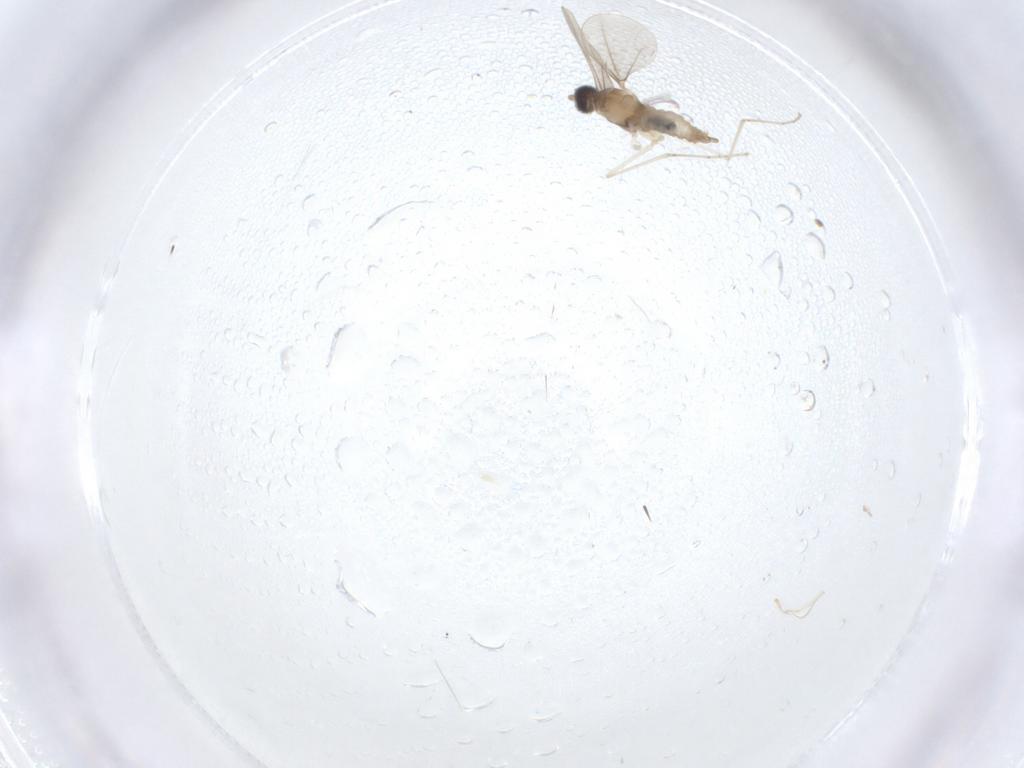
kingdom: Animalia
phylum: Arthropoda
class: Insecta
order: Diptera
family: Cecidomyiidae
